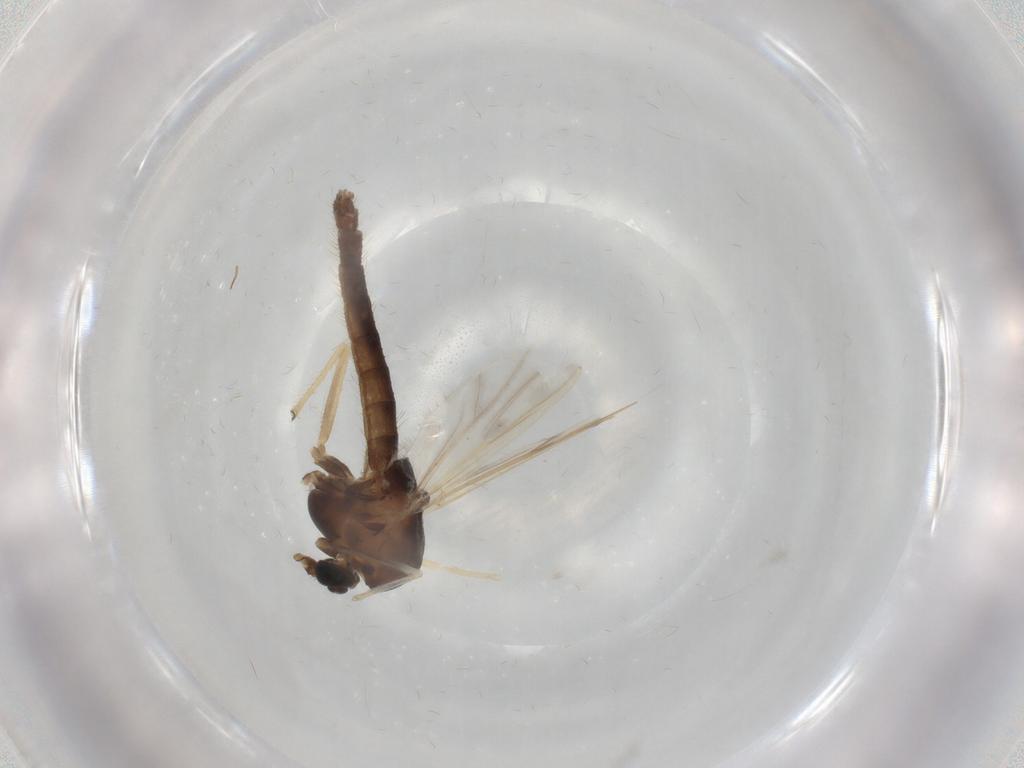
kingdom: Animalia
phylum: Arthropoda
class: Insecta
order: Diptera
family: Chironomidae
